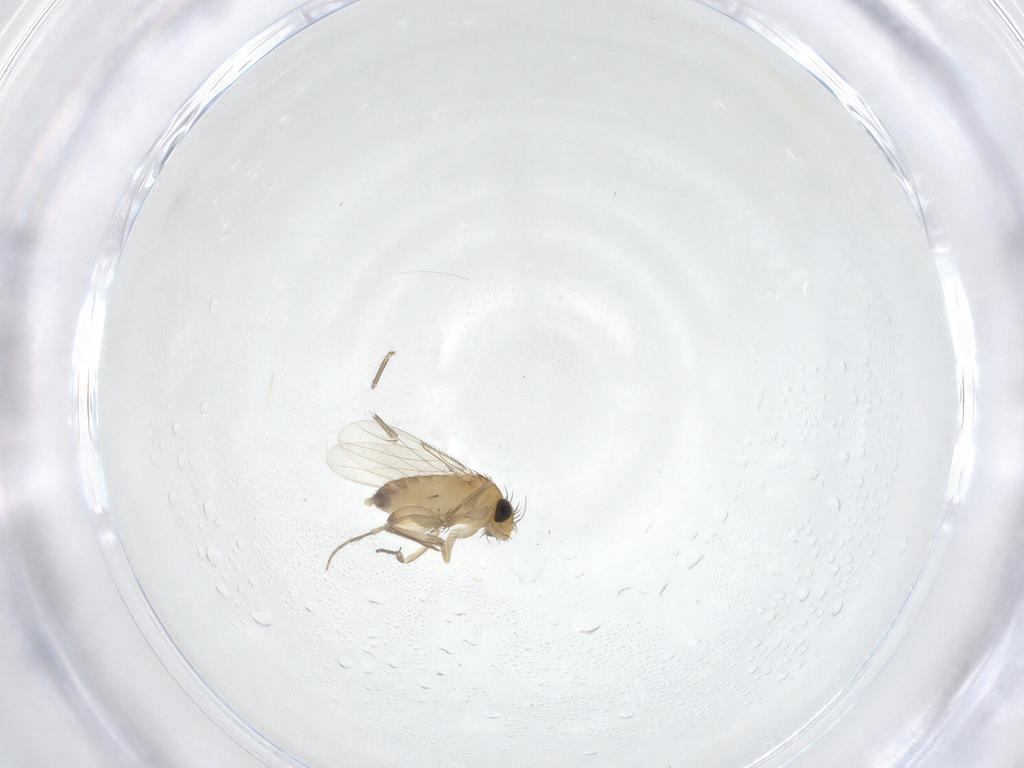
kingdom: Animalia
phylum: Arthropoda
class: Insecta
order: Diptera
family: Phoridae
